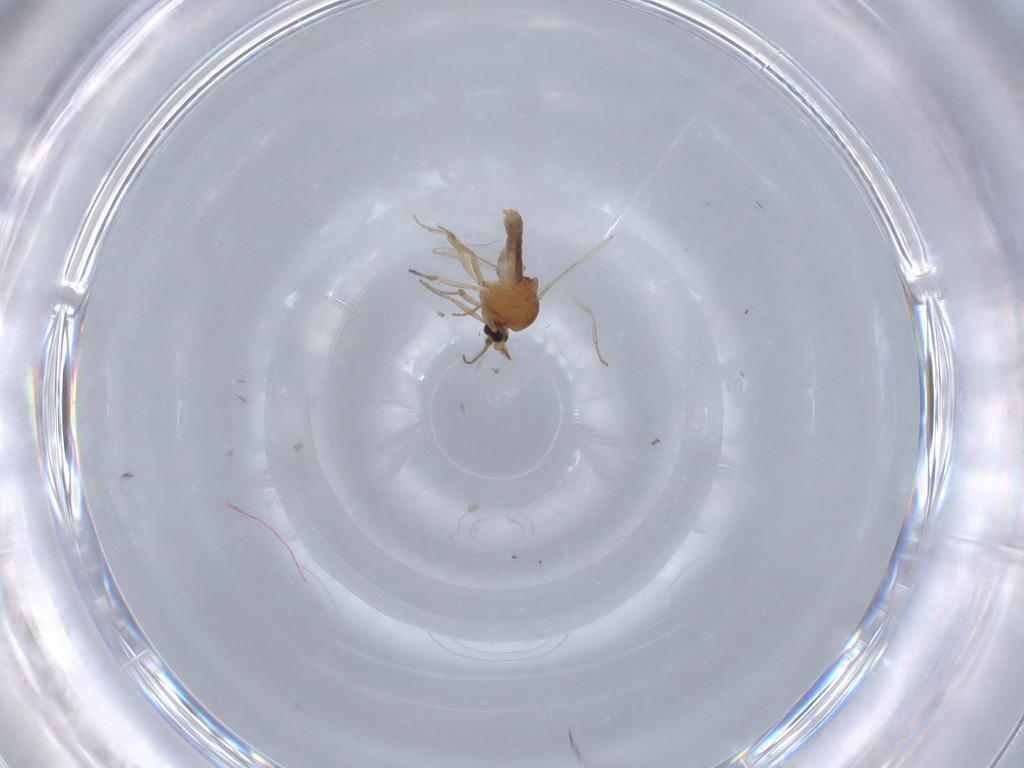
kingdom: Animalia
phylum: Arthropoda
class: Insecta
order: Diptera
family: Ceratopogonidae
